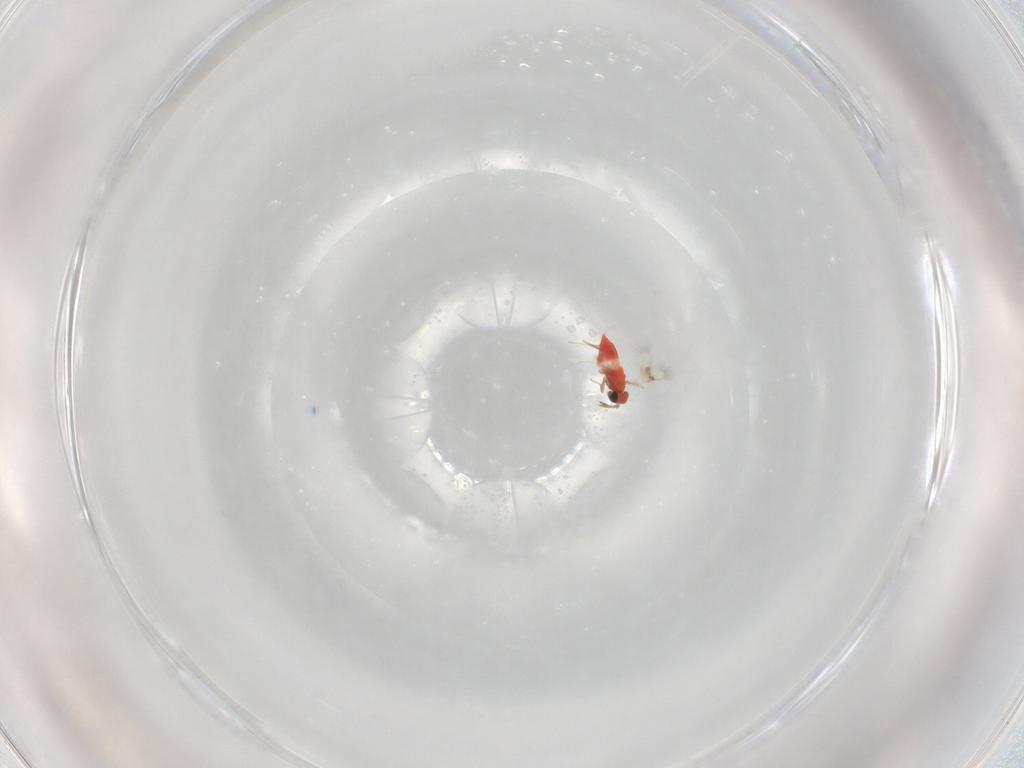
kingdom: Animalia
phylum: Arthropoda
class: Insecta
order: Hymenoptera
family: Trichogrammatidae
